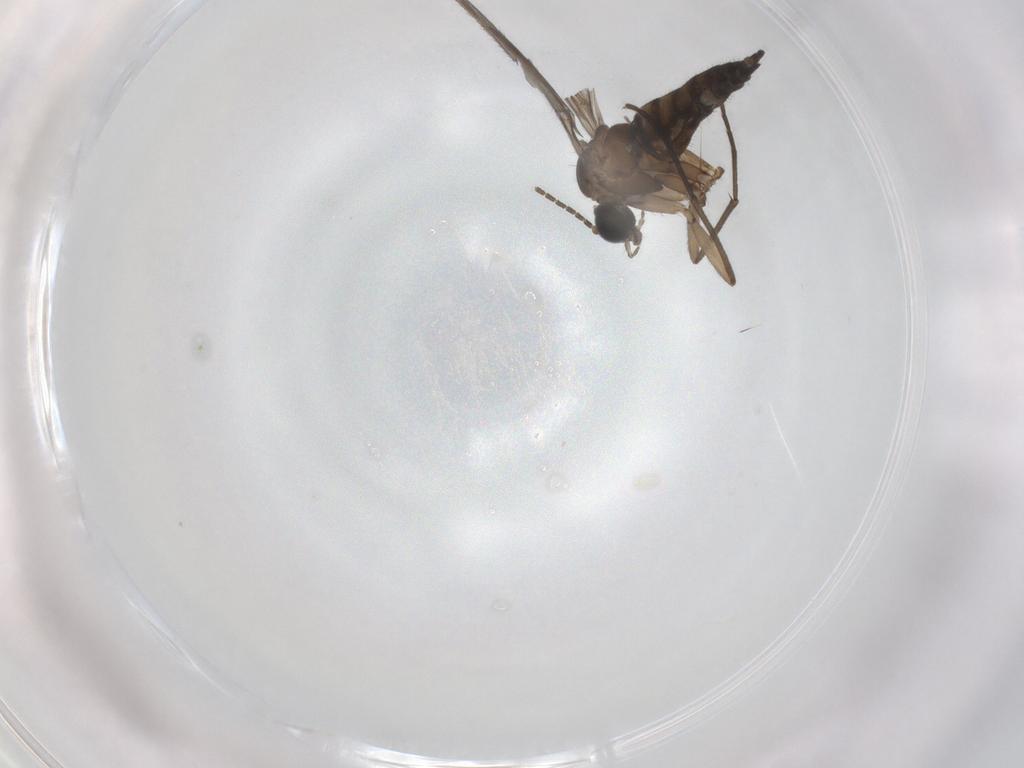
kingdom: Animalia
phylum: Arthropoda
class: Insecta
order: Diptera
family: Sciaridae
